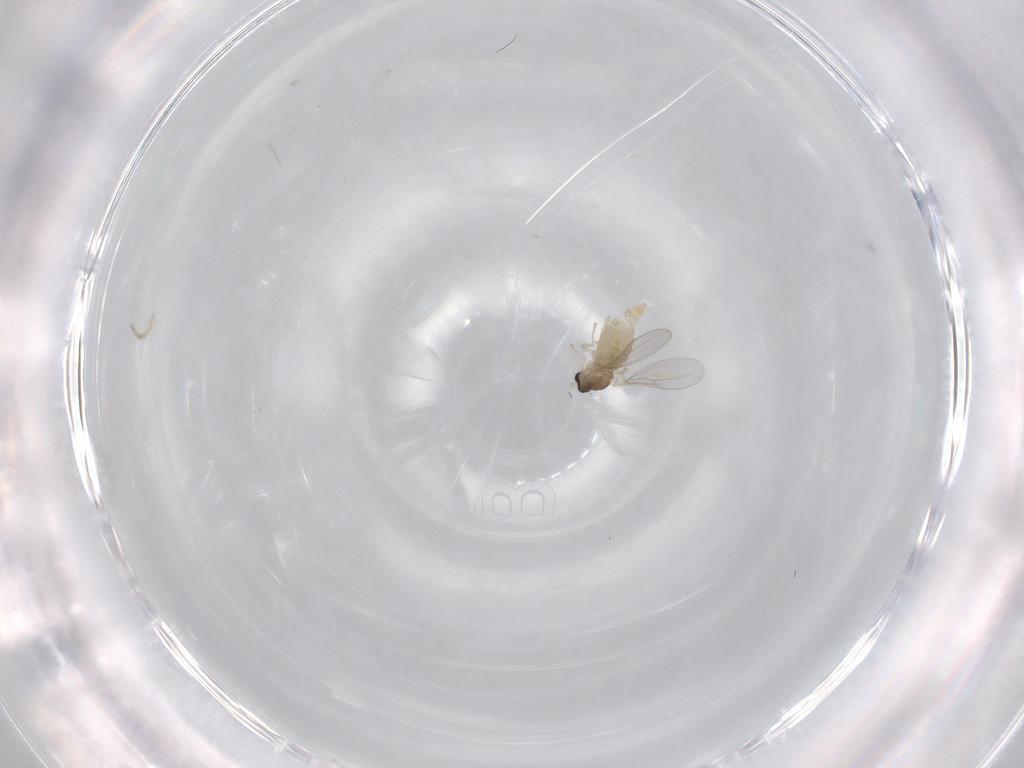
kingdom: Animalia
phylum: Arthropoda
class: Insecta
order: Diptera
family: Cecidomyiidae
